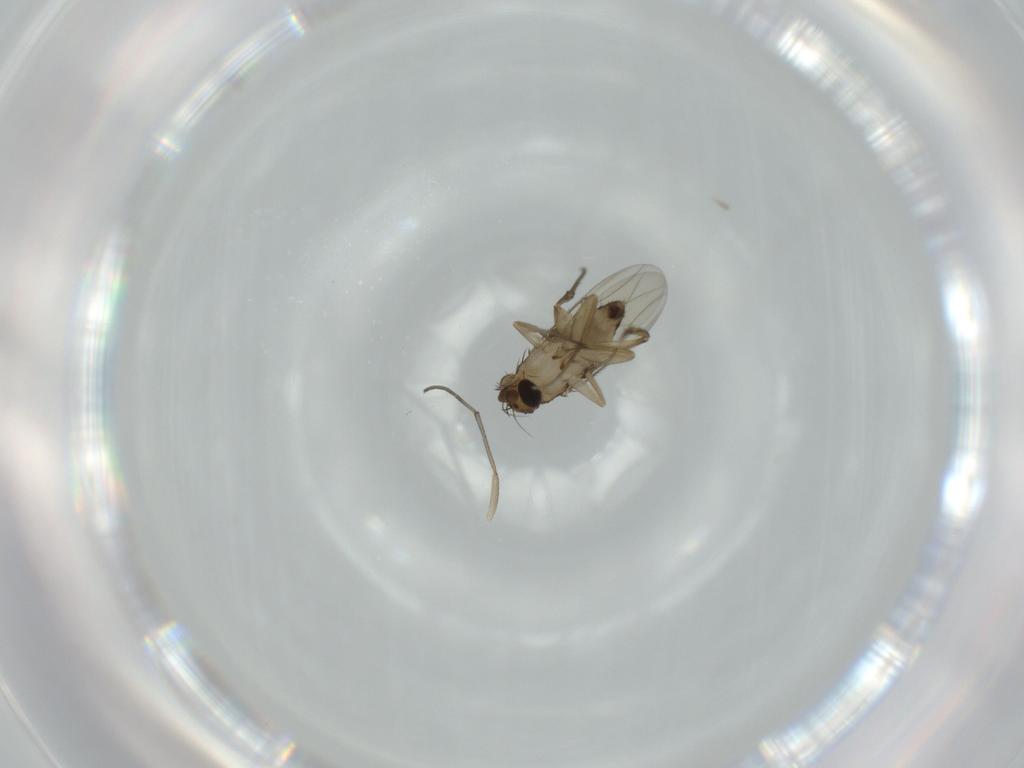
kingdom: Animalia
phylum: Arthropoda
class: Insecta
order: Diptera
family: Phoridae
